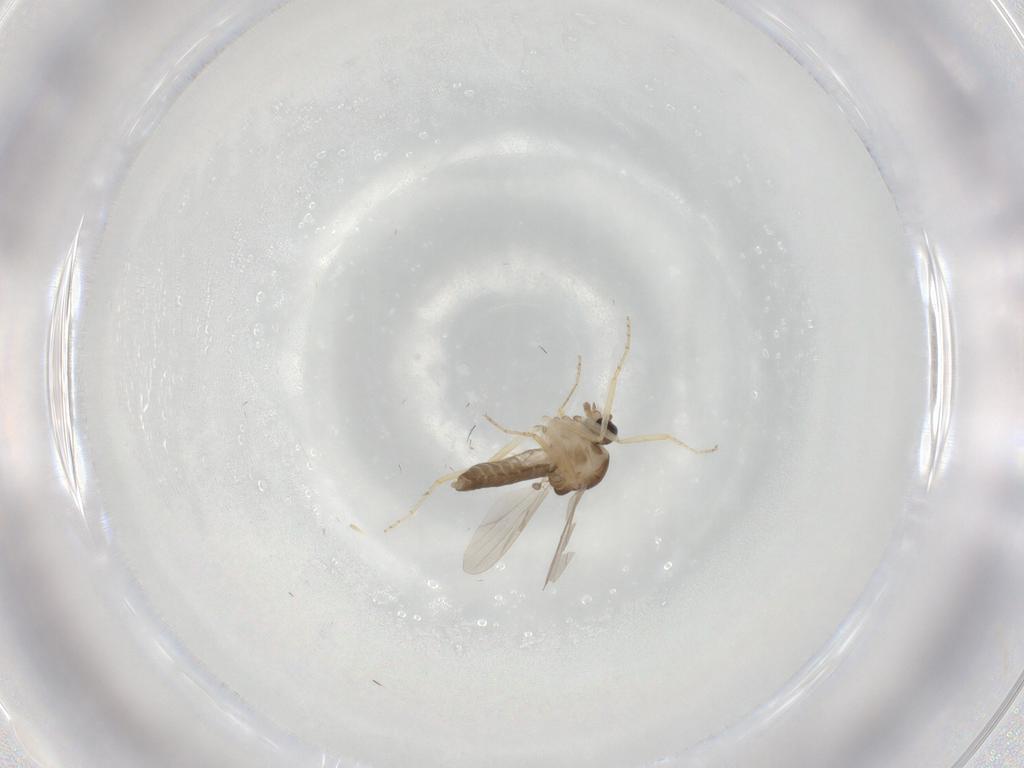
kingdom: Animalia
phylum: Arthropoda
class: Insecta
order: Diptera
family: Ceratopogonidae
